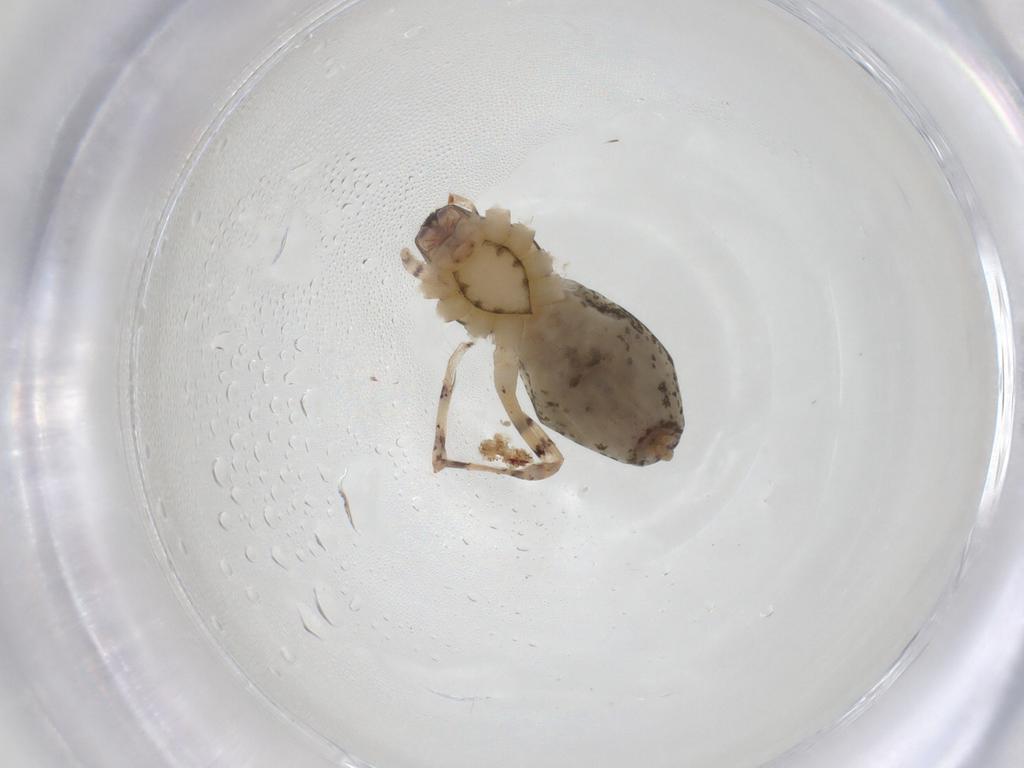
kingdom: Animalia
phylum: Arthropoda
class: Arachnida
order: Araneae
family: Anyphaenidae
